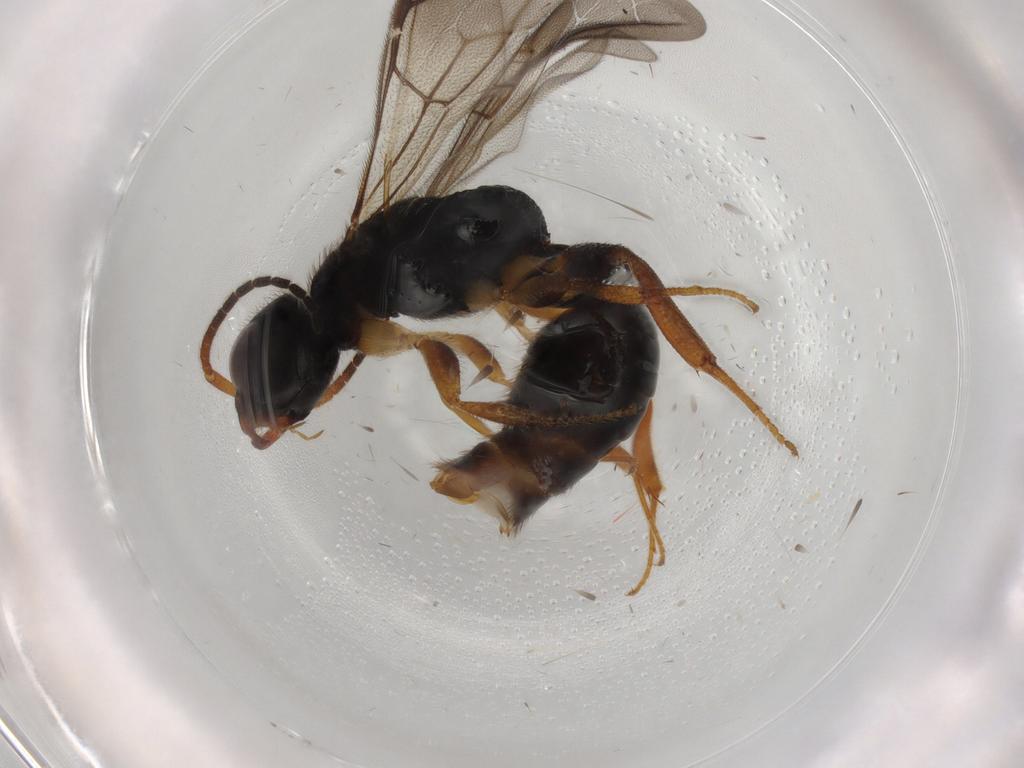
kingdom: Animalia
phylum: Arthropoda
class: Insecta
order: Hymenoptera
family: Bethylidae
